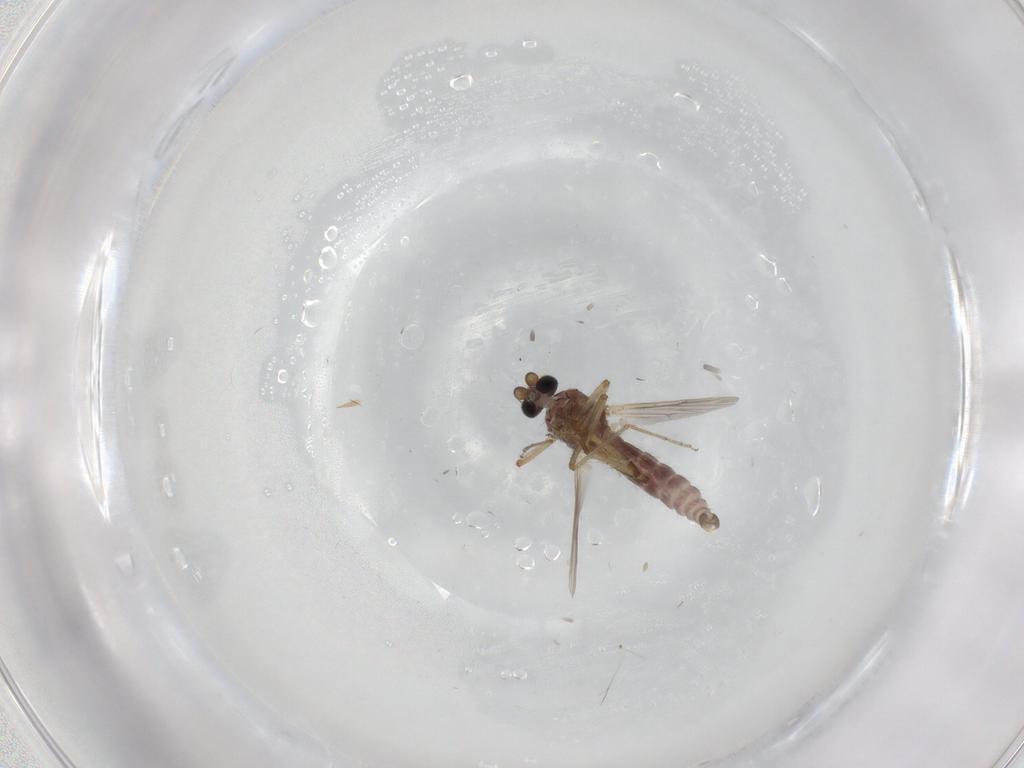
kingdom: Animalia
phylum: Arthropoda
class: Insecta
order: Diptera
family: Ceratopogonidae
